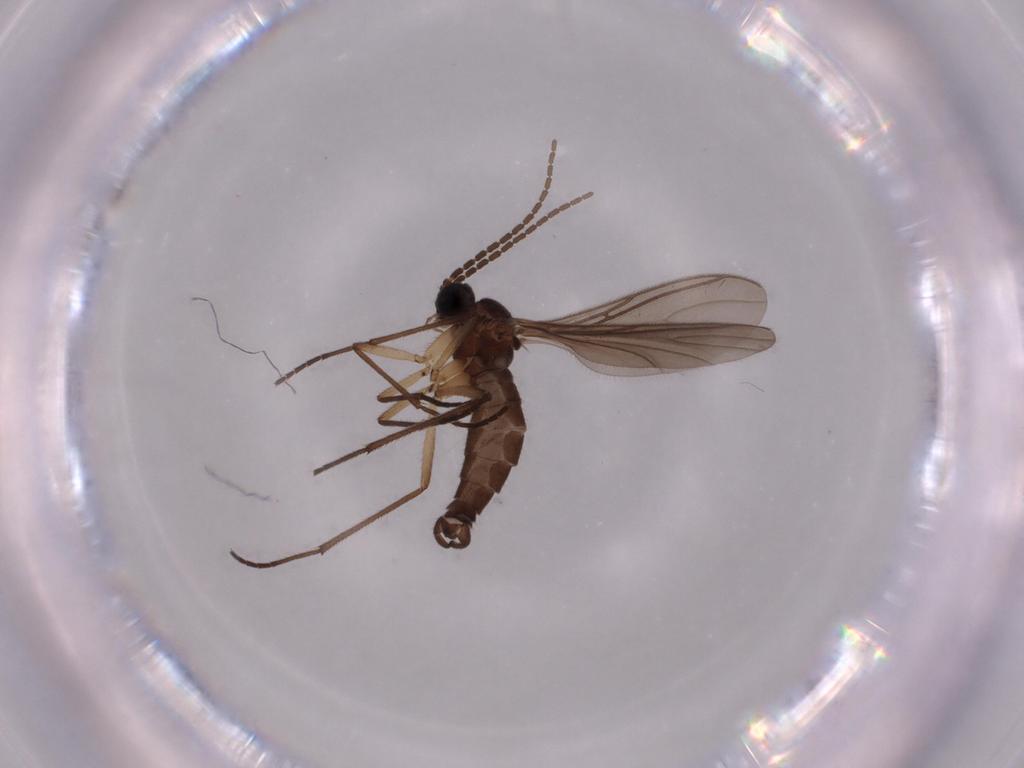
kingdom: Animalia
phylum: Arthropoda
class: Insecta
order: Diptera
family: Sciaridae
